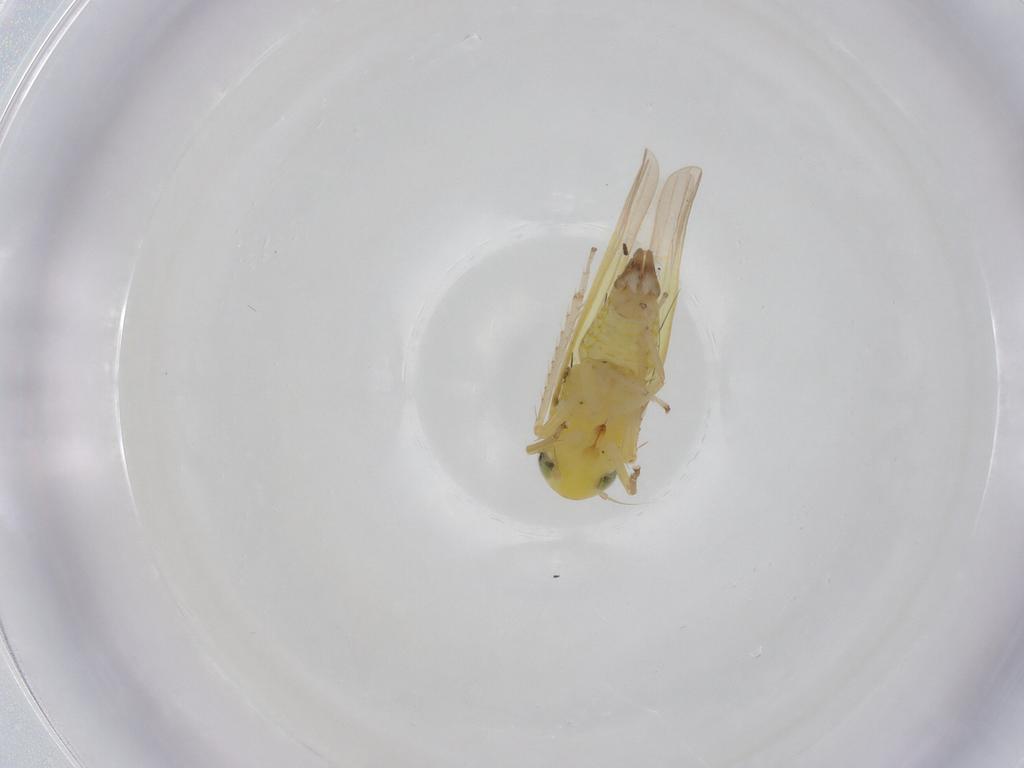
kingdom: Animalia
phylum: Arthropoda
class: Insecta
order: Hemiptera
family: Cicadellidae
